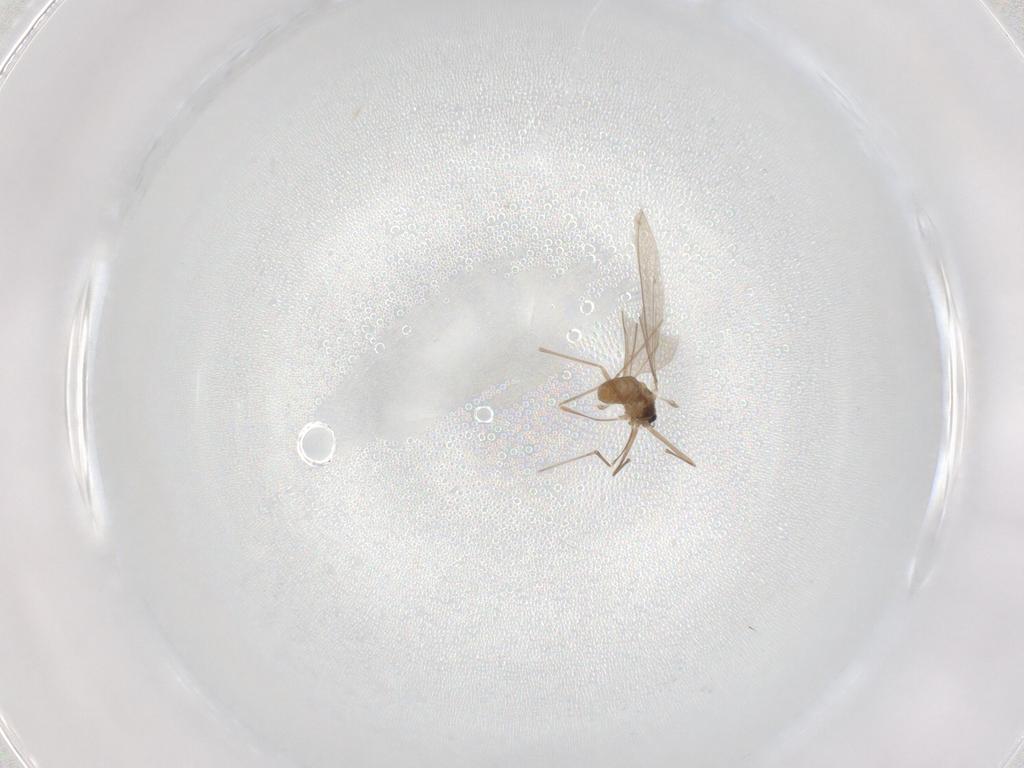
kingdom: Animalia
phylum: Arthropoda
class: Insecta
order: Diptera
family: Cecidomyiidae
